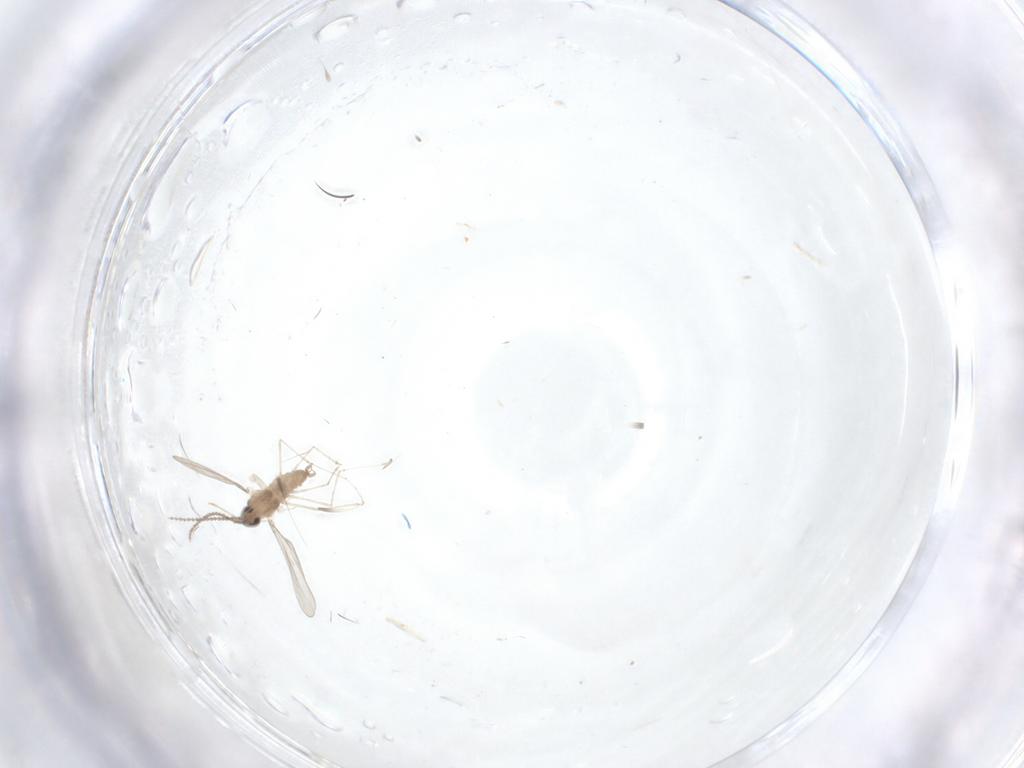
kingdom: Animalia
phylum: Arthropoda
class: Insecta
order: Diptera
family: Cecidomyiidae
